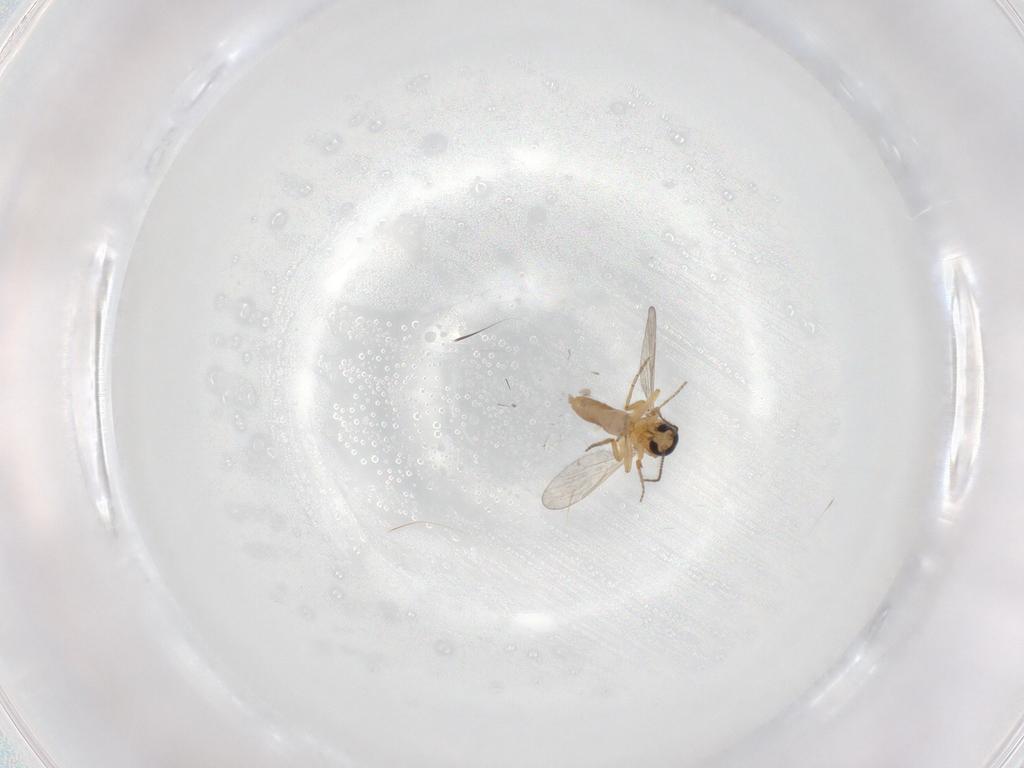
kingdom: Animalia
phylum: Arthropoda
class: Insecta
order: Diptera
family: Ceratopogonidae
